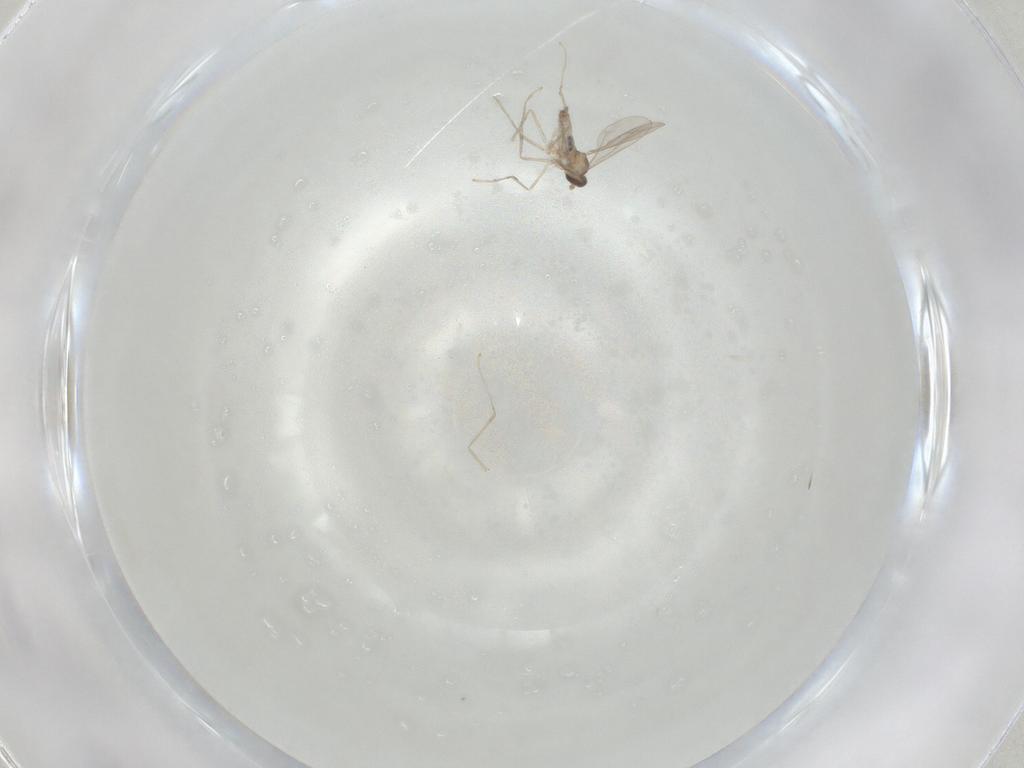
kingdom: Animalia
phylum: Arthropoda
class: Insecta
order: Diptera
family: Cecidomyiidae
